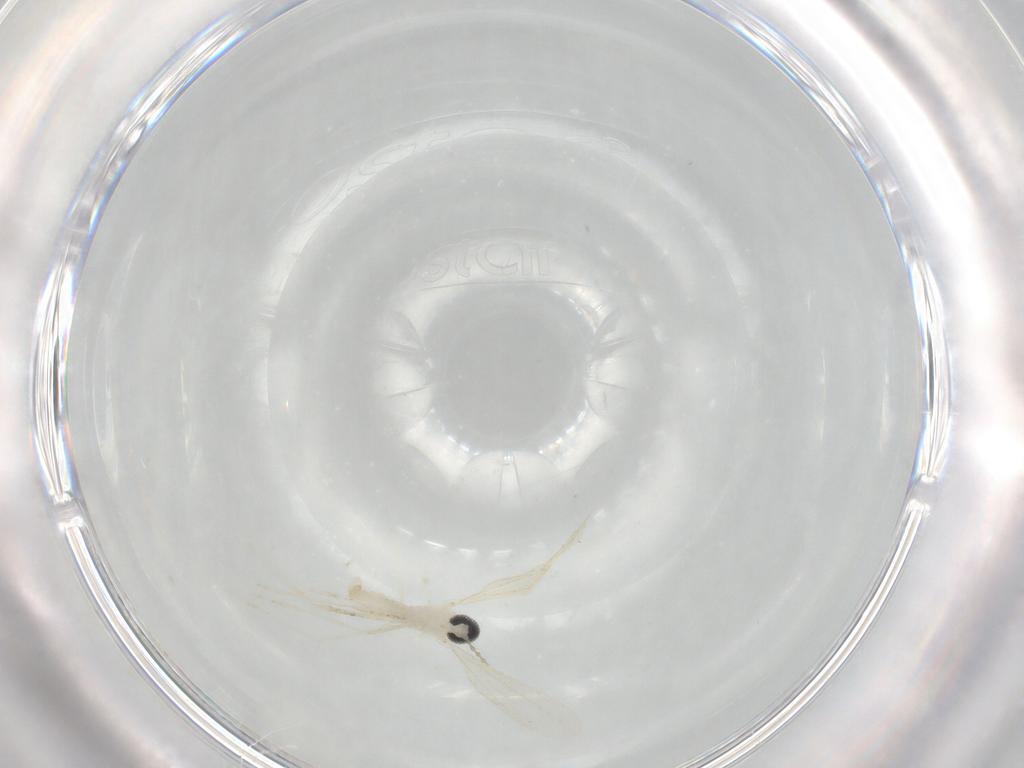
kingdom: Animalia
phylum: Arthropoda
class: Insecta
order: Diptera
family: Cecidomyiidae
